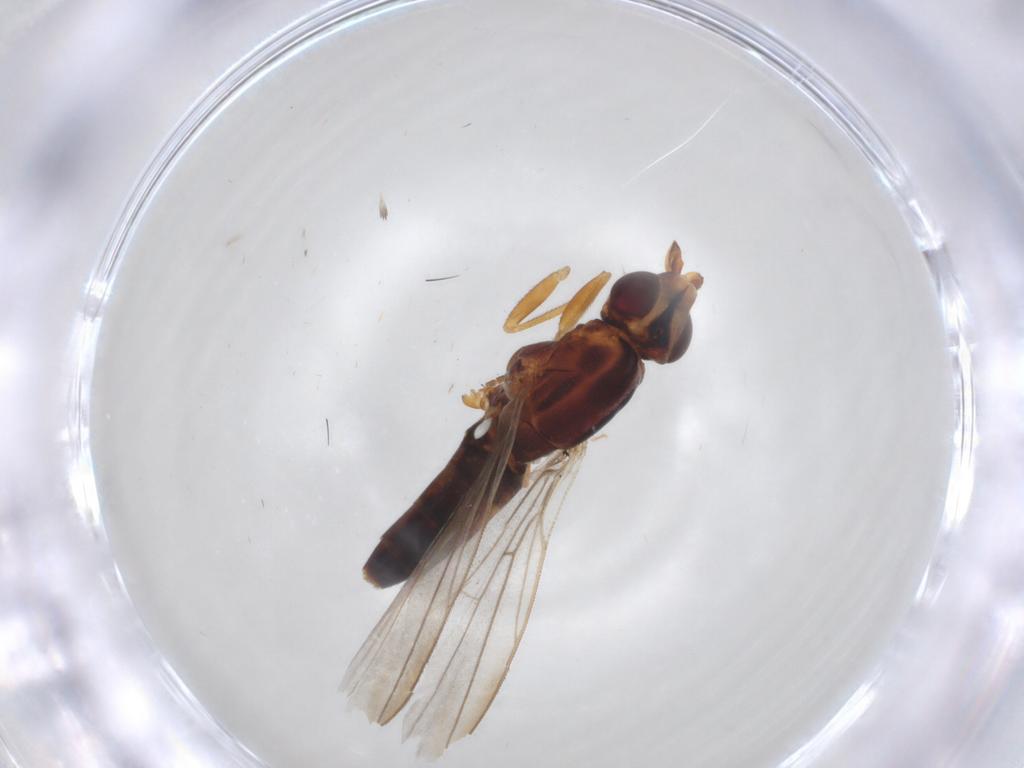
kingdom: Animalia
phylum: Arthropoda
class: Insecta
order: Diptera
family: Chloropidae
